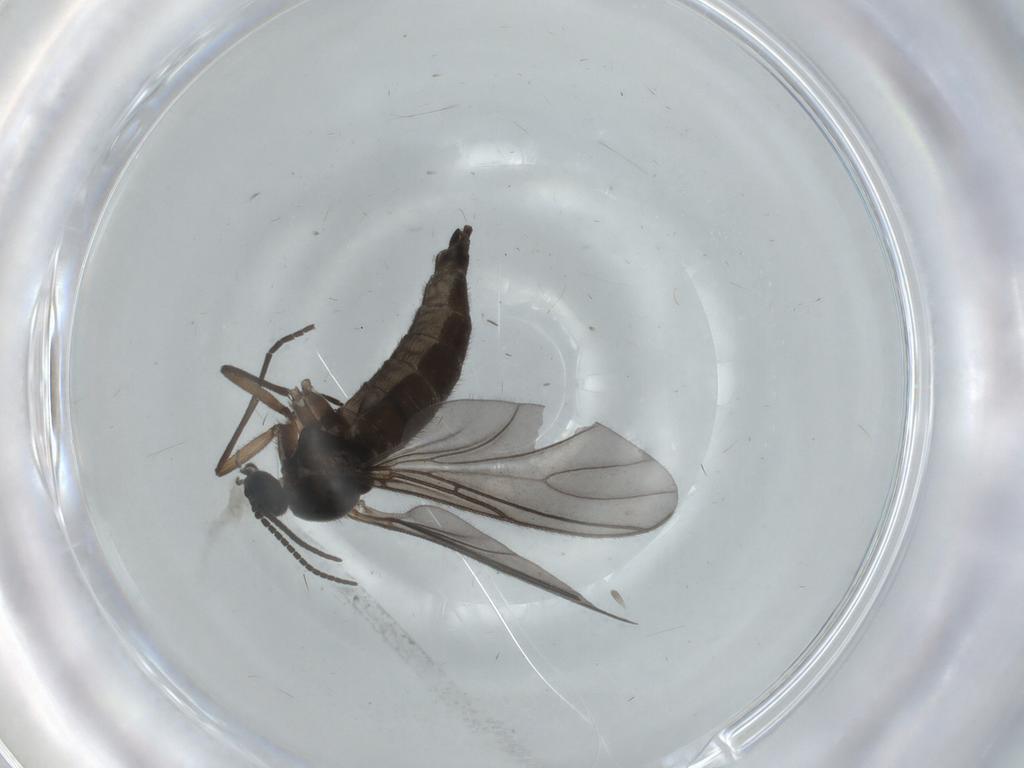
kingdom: Animalia
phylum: Arthropoda
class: Insecta
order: Diptera
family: Sciaridae
